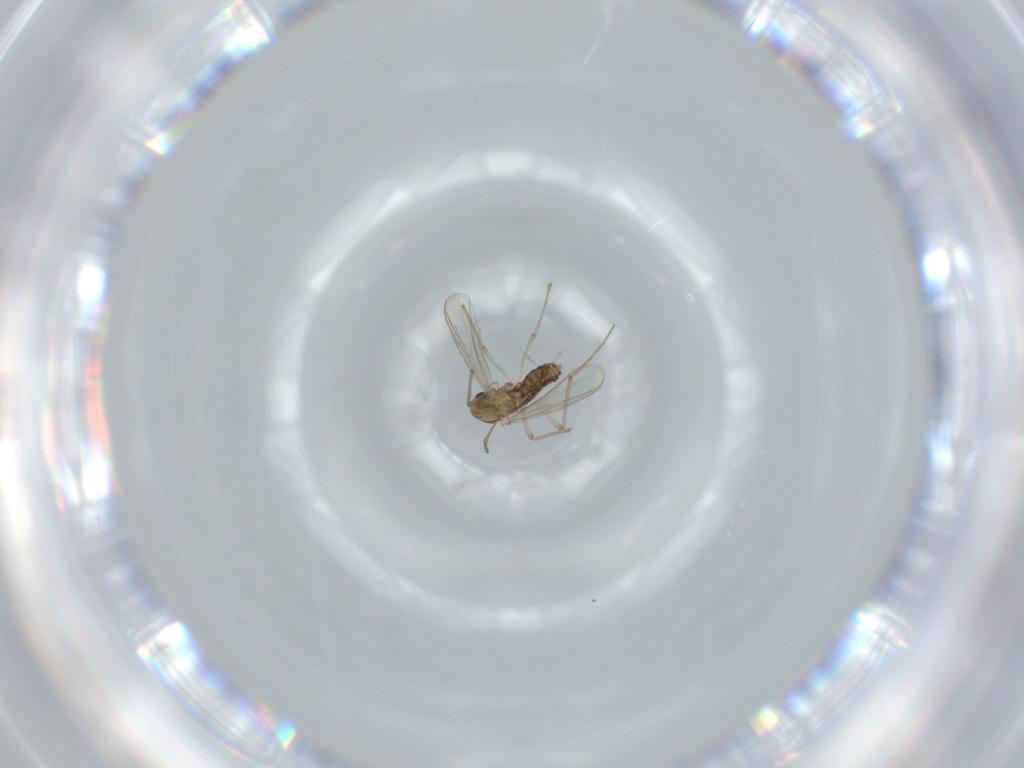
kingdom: Animalia
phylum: Arthropoda
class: Insecta
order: Diptera
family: Chironomidae
